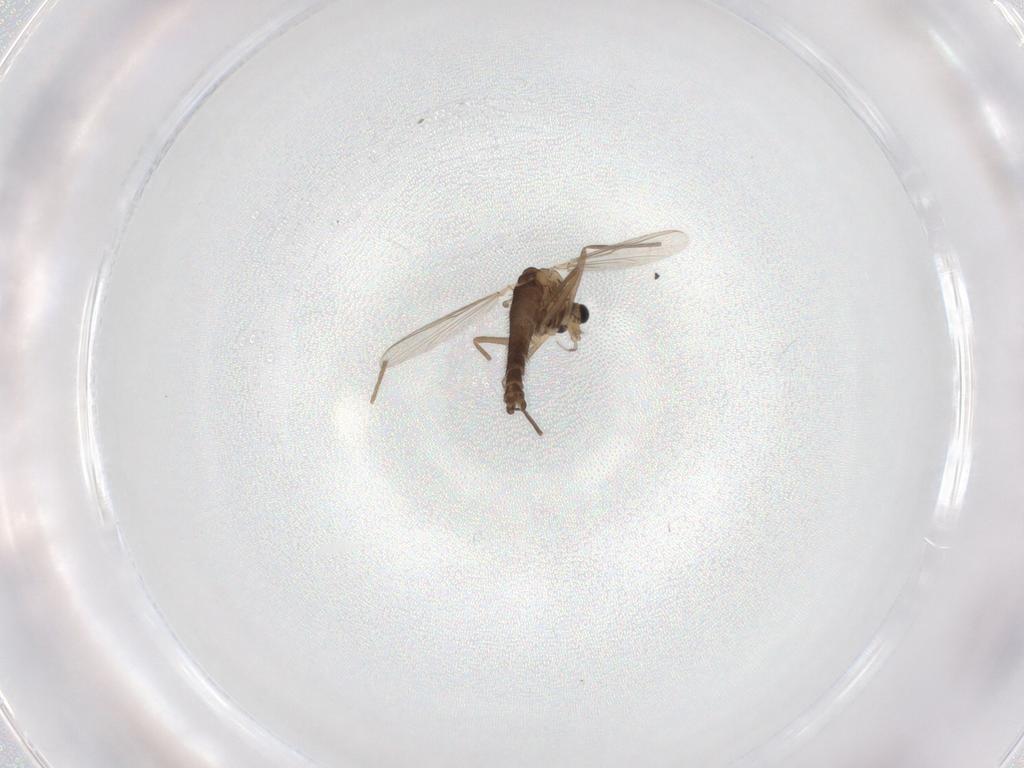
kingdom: Animalia
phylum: Arthropoda
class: Insecta
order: Diptera
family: Chironomidae
